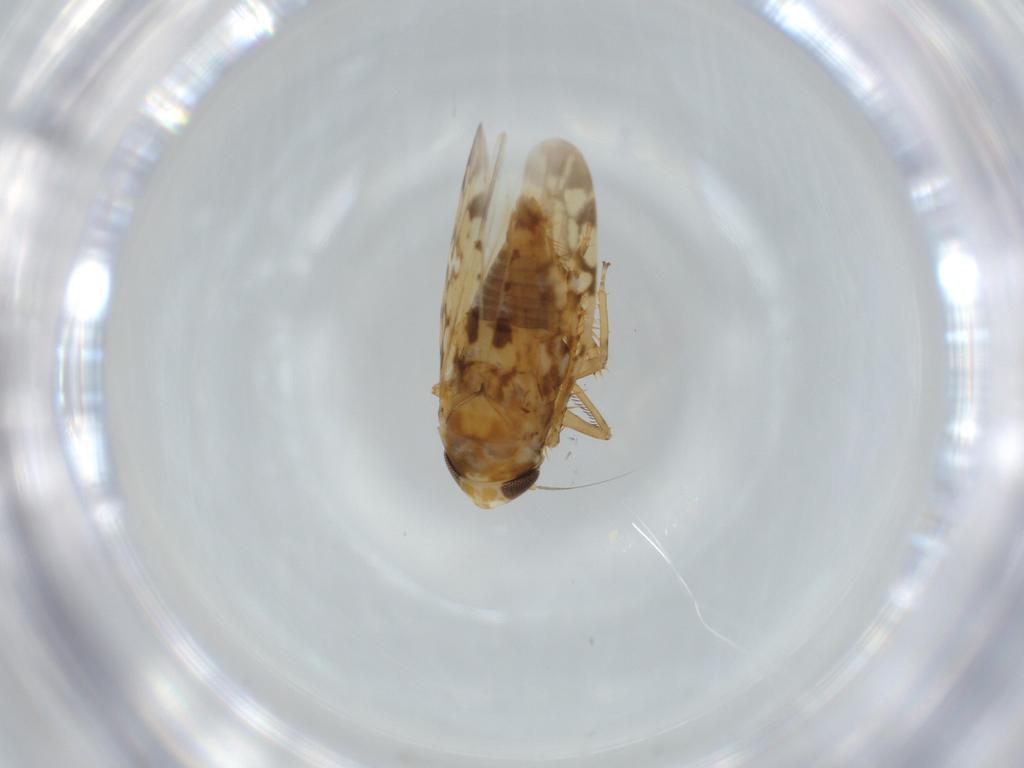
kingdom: Animalia
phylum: Arthropoda
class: Insecta
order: Hemiptera
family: Cicadellidae
